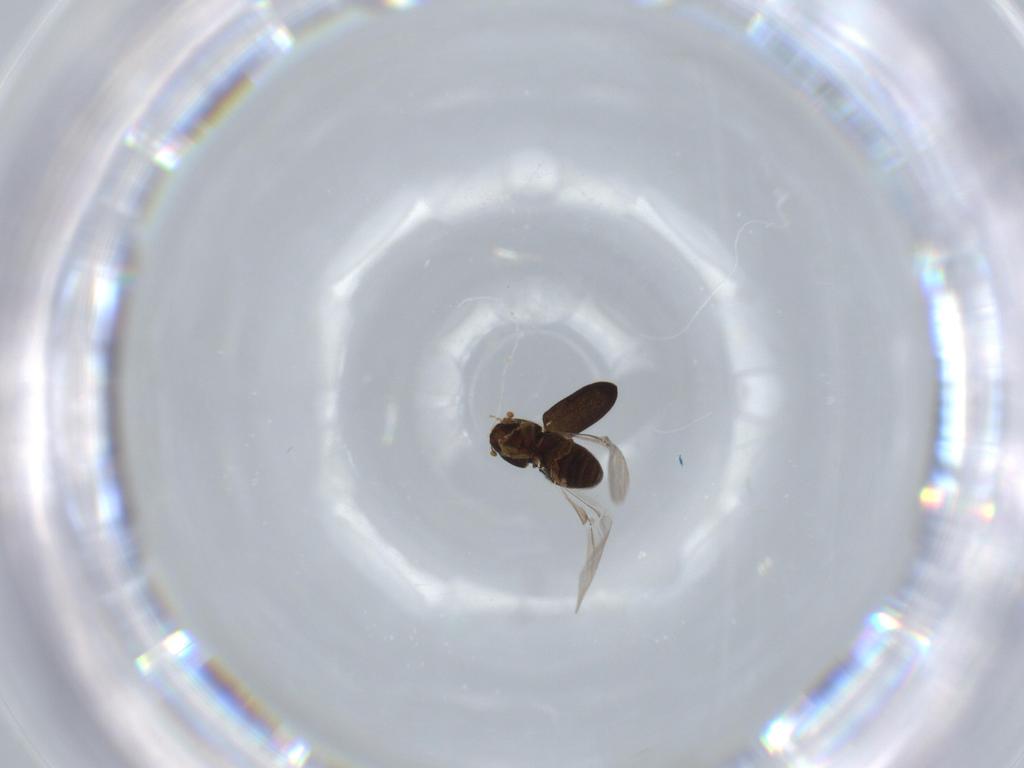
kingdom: Animalia
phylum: Arthropoda
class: Insecta
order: Coleoptera
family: Curculionidae
